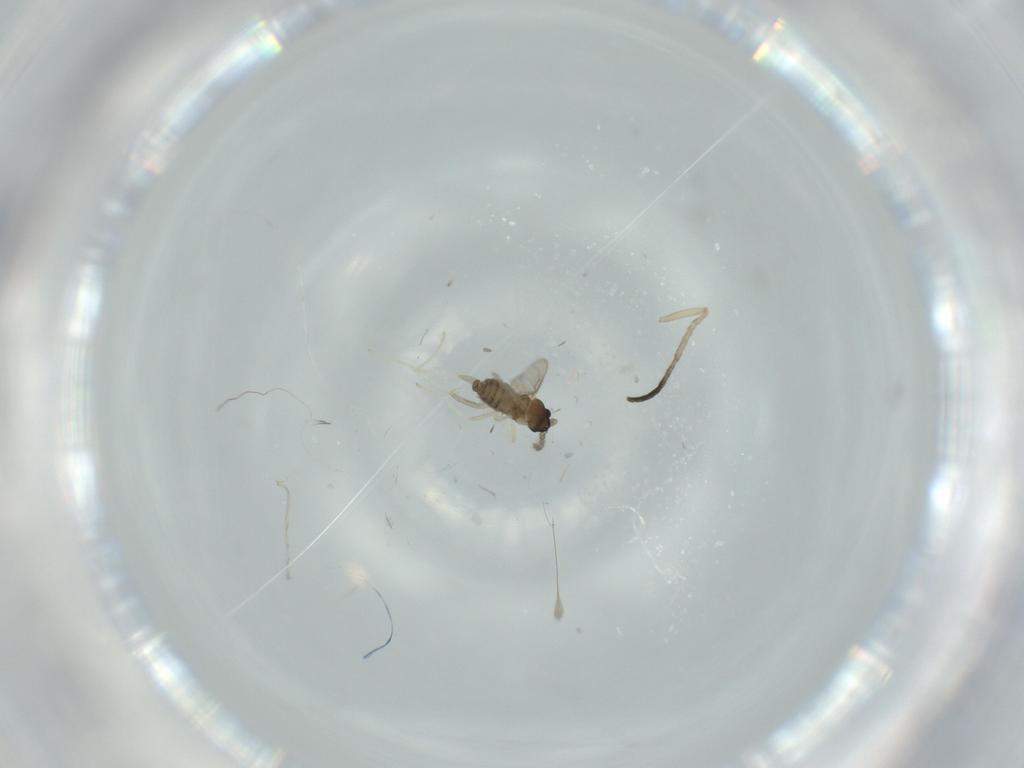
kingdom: Animalia
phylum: Arthropoda
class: Insecta
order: Diptera
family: Cecidomyiidae
